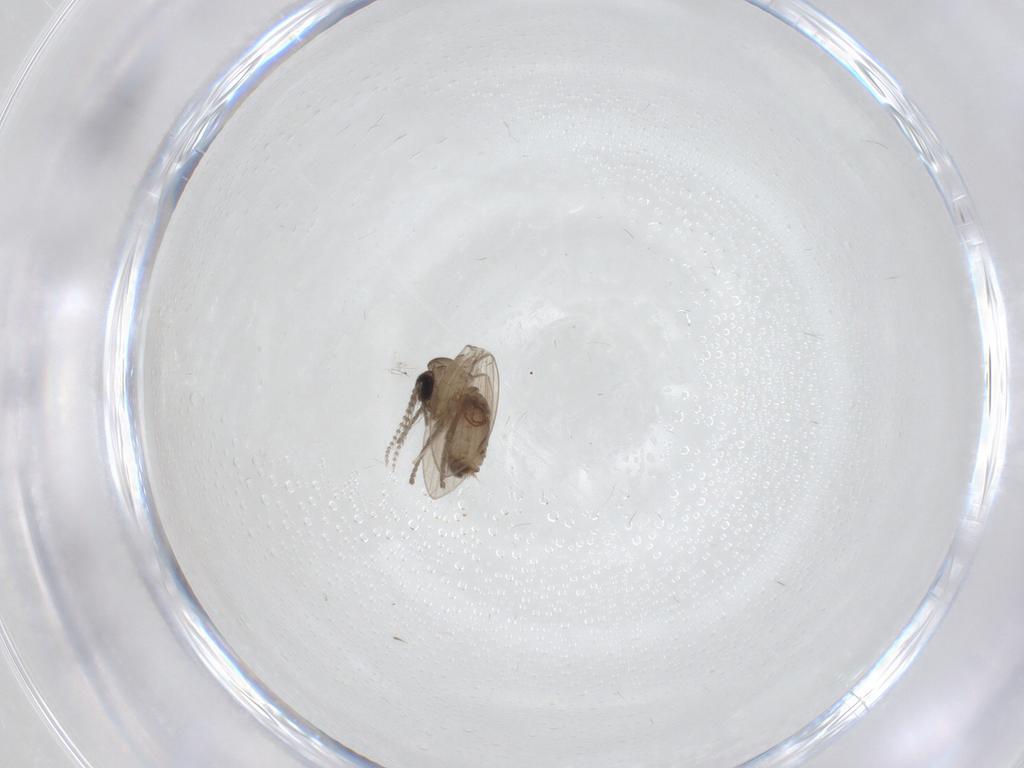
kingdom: Animalia
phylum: Arthropoda
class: Insecta
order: Diptera
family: Psychodidae
